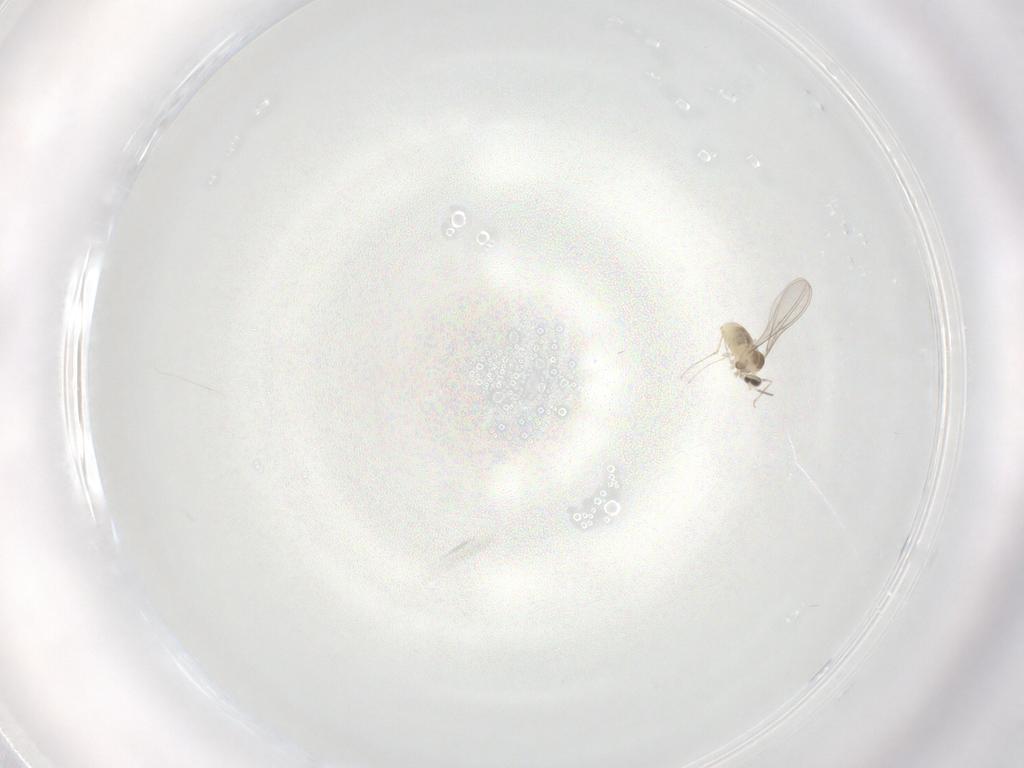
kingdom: Animalia
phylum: Arthropoda
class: Insecta
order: Diptera
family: Cecidomyiidae
